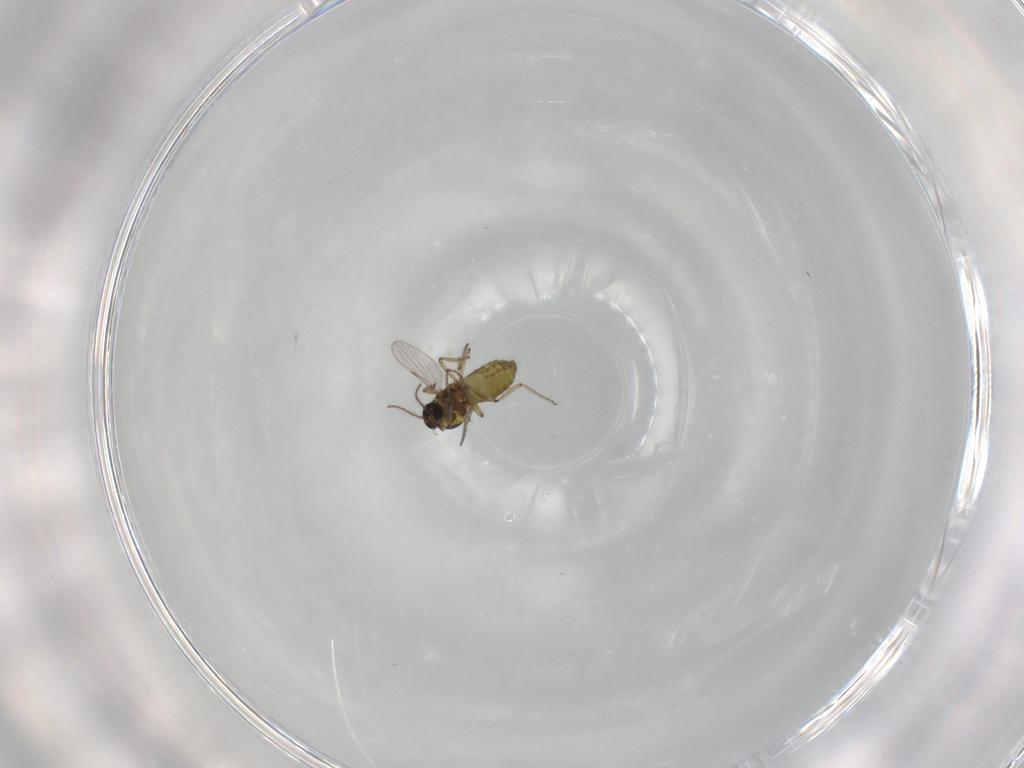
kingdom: Animalia
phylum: Arthropoda
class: Insecta
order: Diptera
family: Ceratopogonidae
